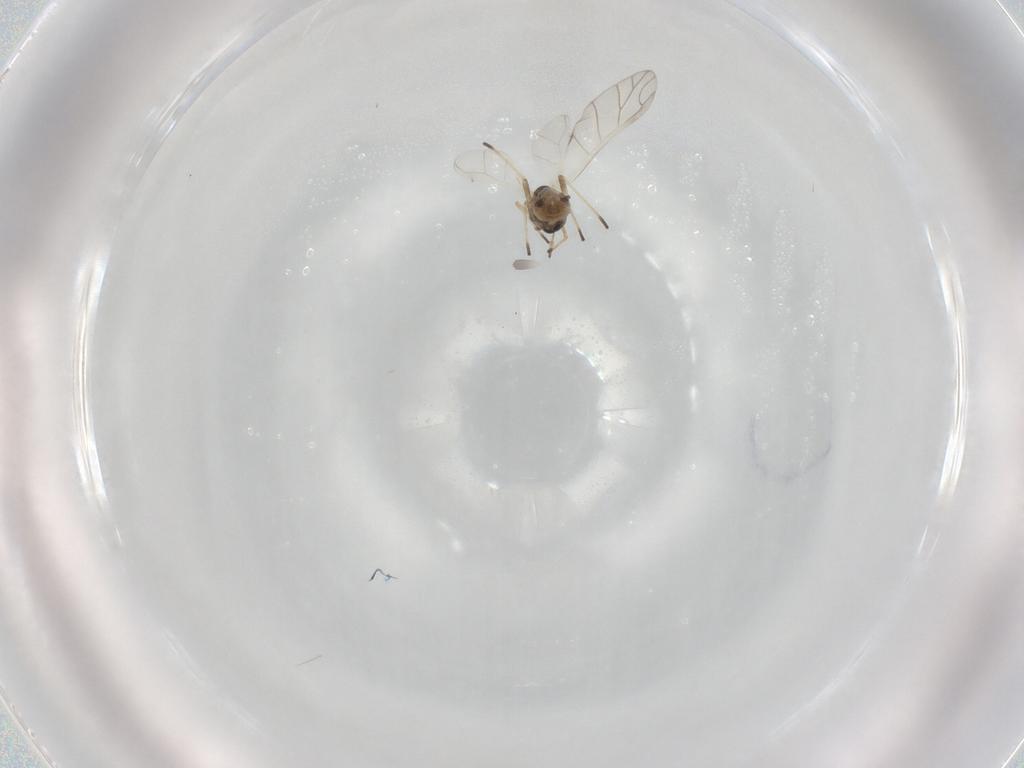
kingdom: Animalia
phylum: Arthropoda
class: Insecta
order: Hemiptera
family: Aphididae
